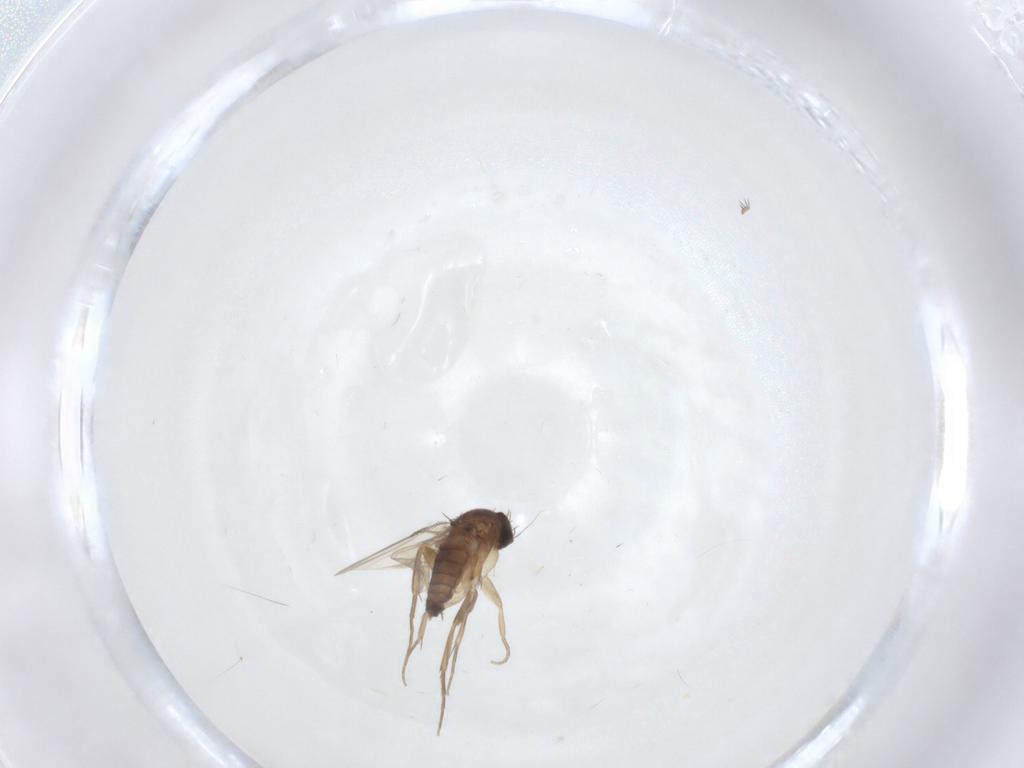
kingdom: Animalia
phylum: Arthropoda
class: Insecta
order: Diptera
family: Phoridae
